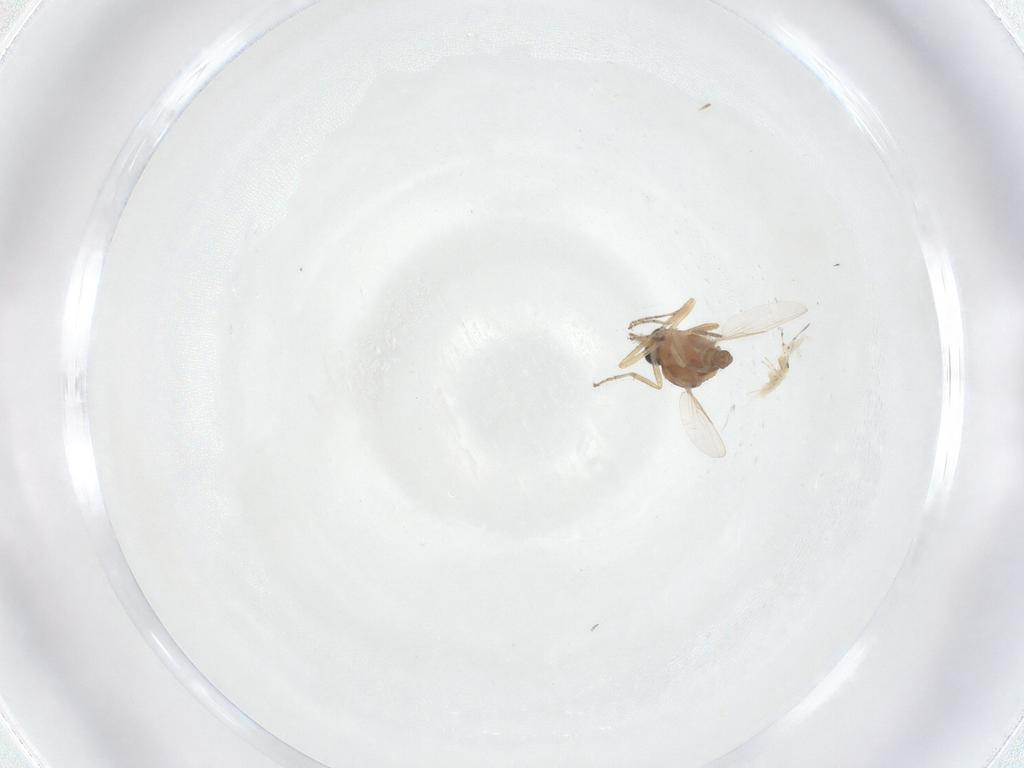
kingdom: Animalia
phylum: Arthropoda
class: Insecta
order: Diptera
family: Ceratopogonidae
